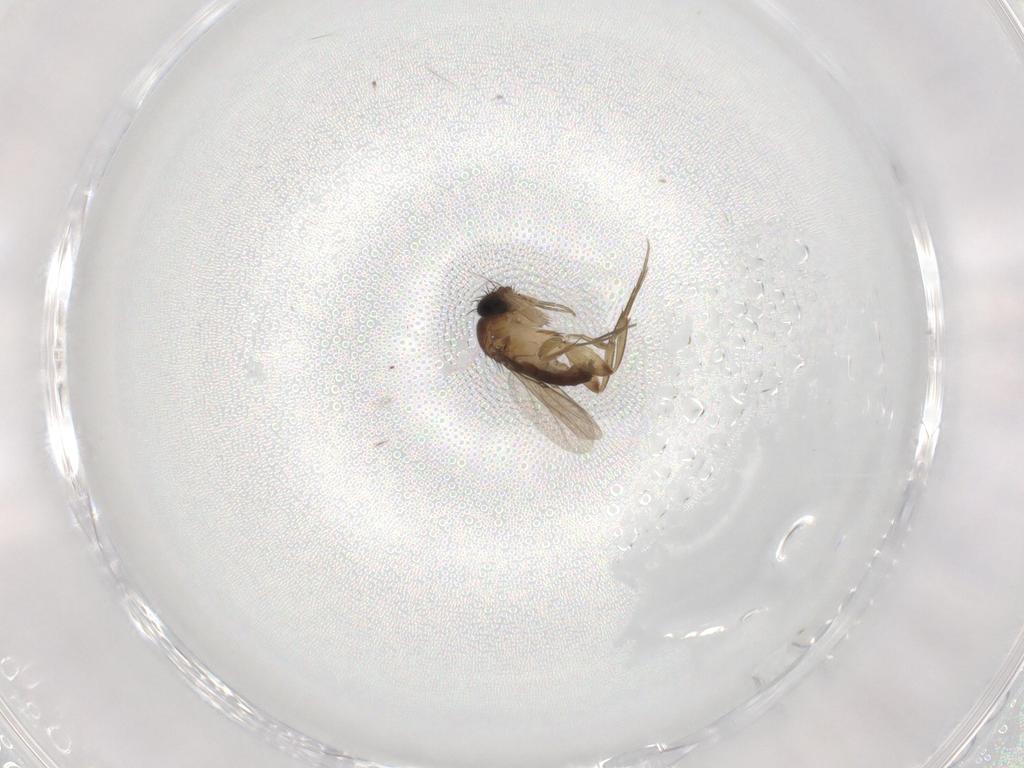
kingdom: Animalia
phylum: Arthropoda
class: Insecta
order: Diptera
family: Phoridae
